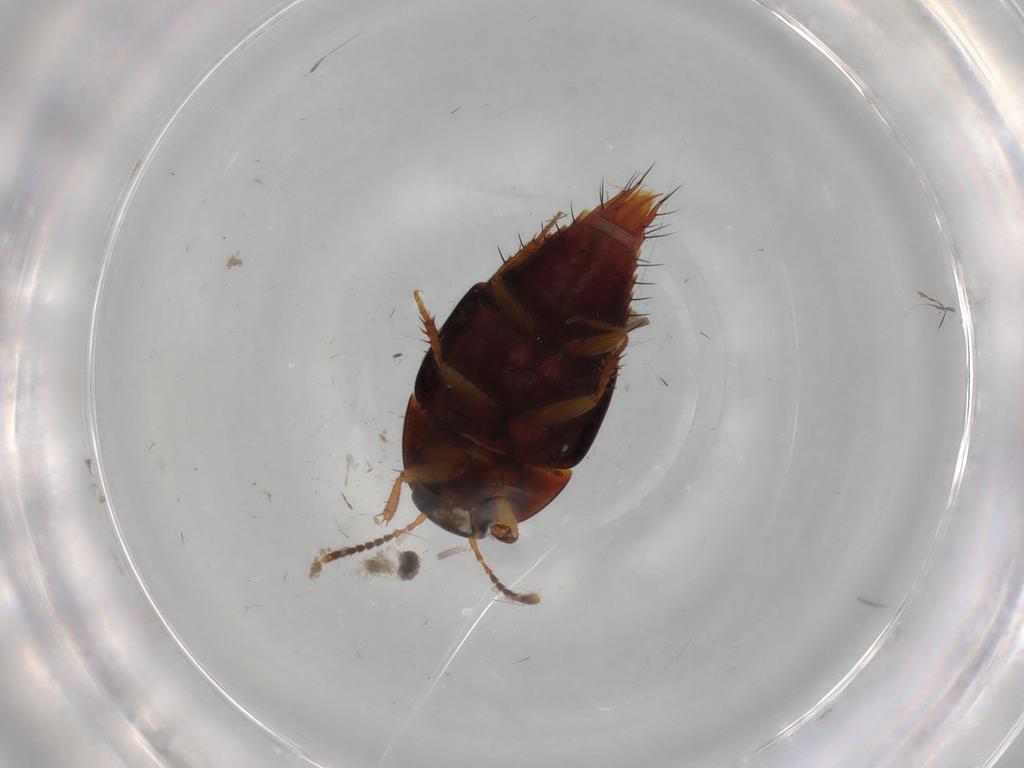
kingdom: Animalia
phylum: Arthropoda
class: Insecta
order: Coleoptera
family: Staphylinidae
